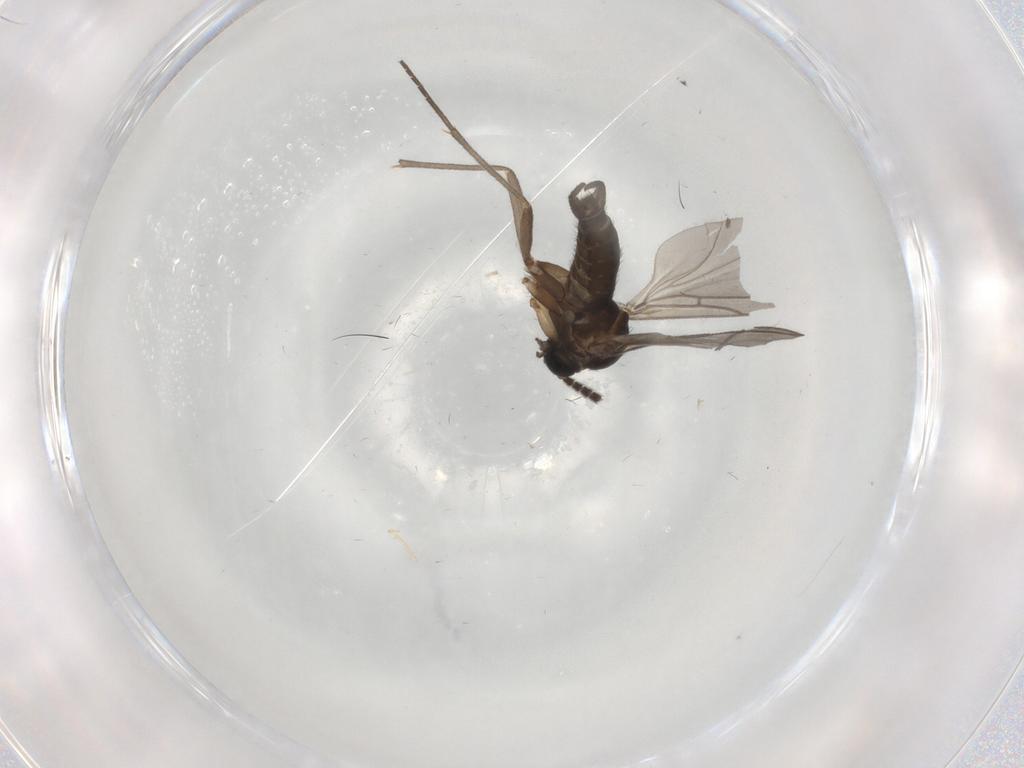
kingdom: Animalia
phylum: Arthropoda
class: Insecta
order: Diptera
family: Sciaridae
